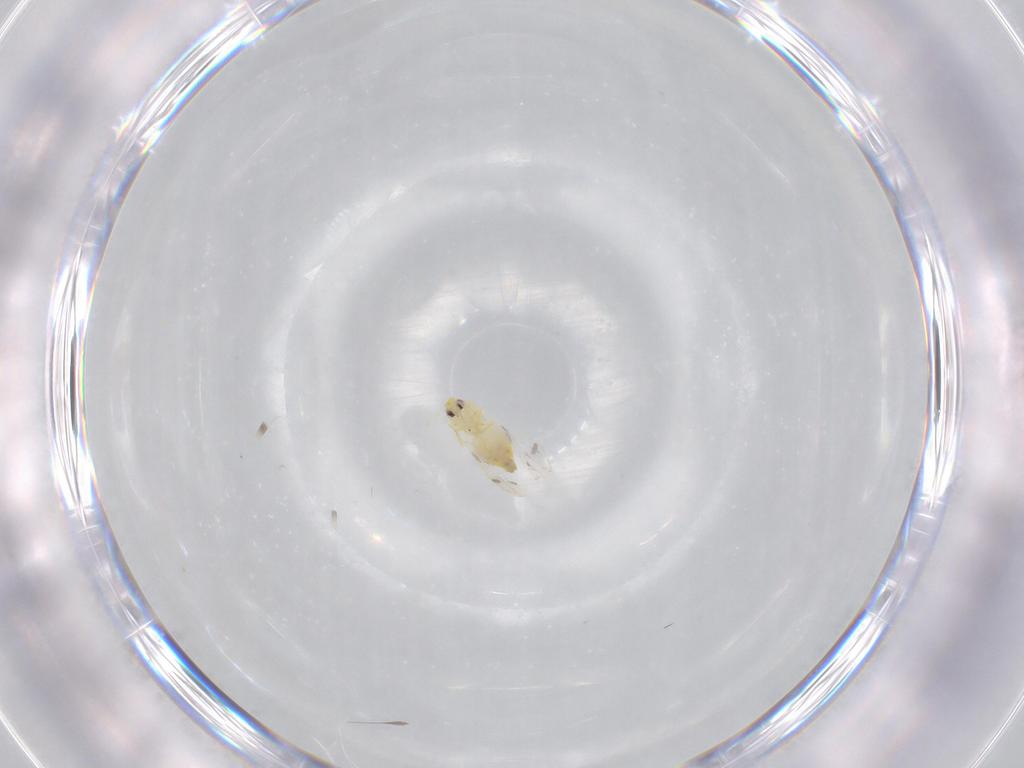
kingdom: Animalia
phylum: Arthropoda
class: Insecta
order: Hemiptera
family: Aleyrodidae
